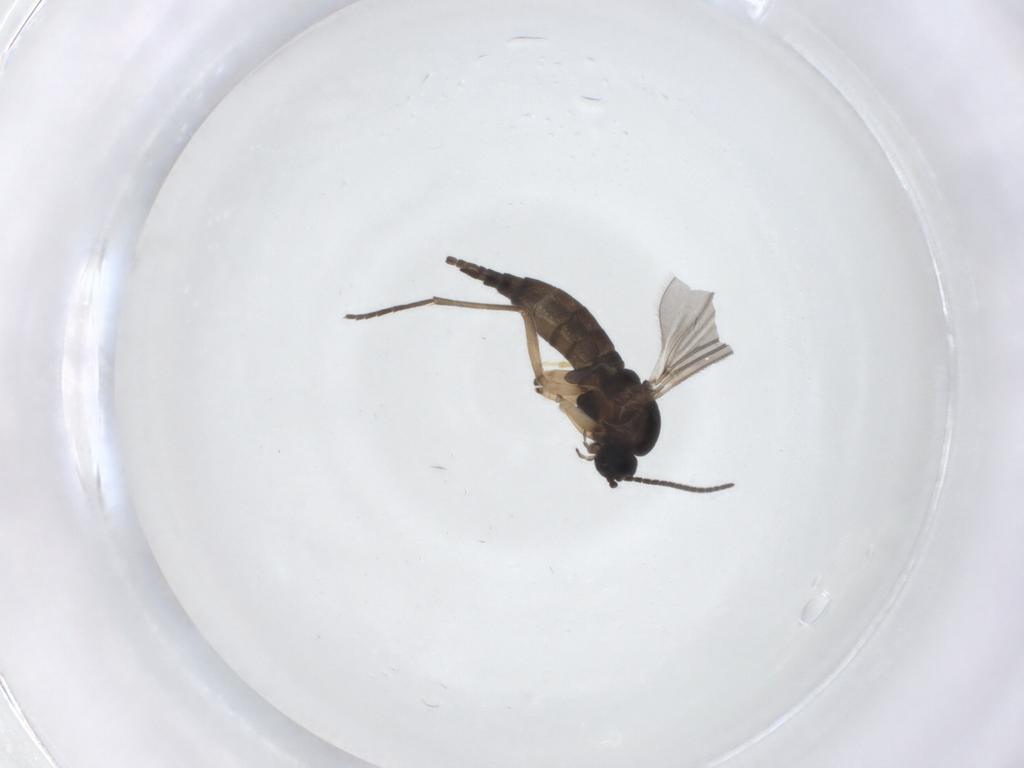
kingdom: Animalia
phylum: Arthropoda
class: Insecta
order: Diptera
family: Sciaridae
